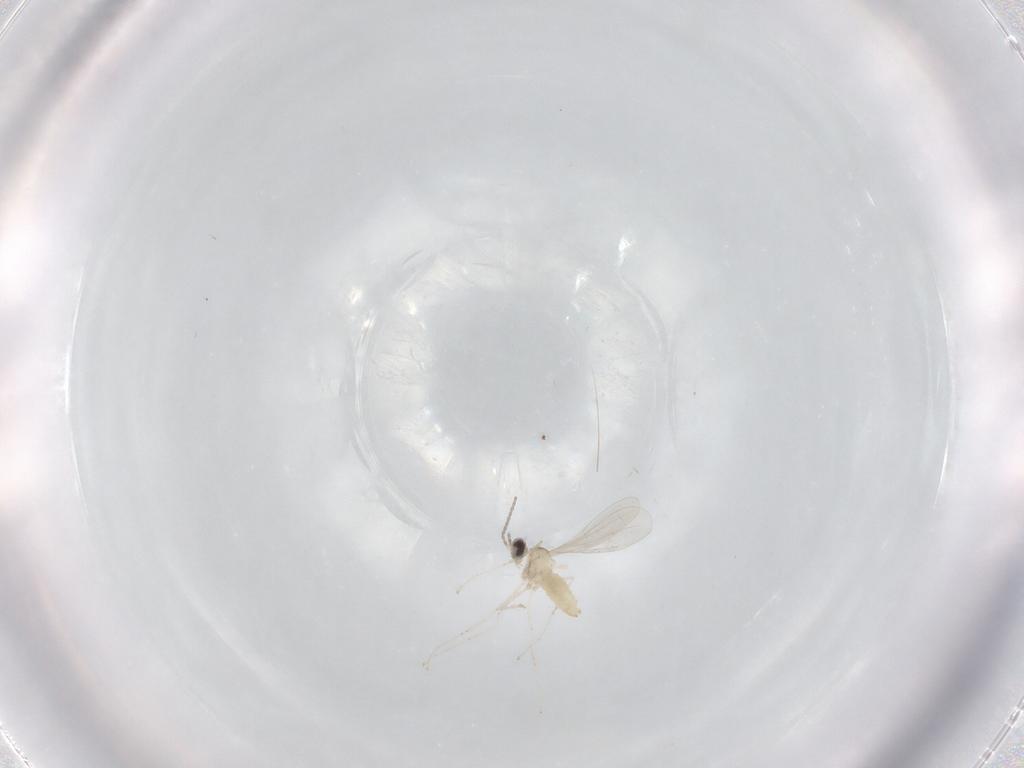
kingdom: Animalia
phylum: Arthropoda
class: Insecta
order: Diptera
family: Cecidomyiidae
